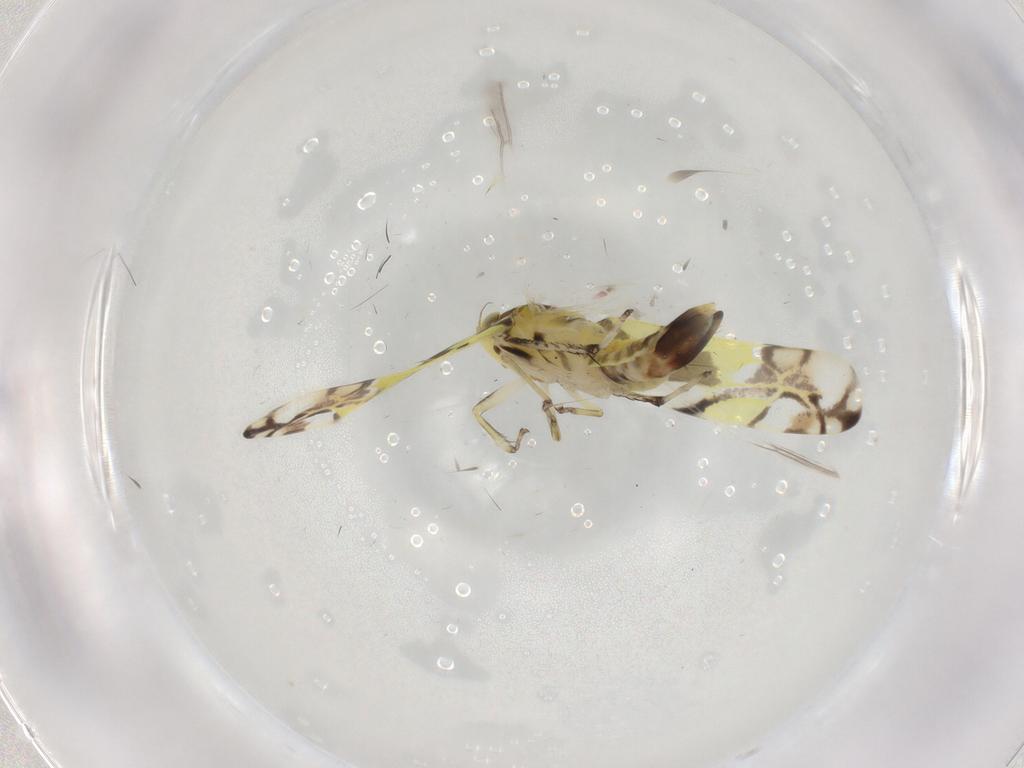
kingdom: Animalia
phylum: Arthropoda
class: Insecta
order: Hemiptera
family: Cicadellidae
